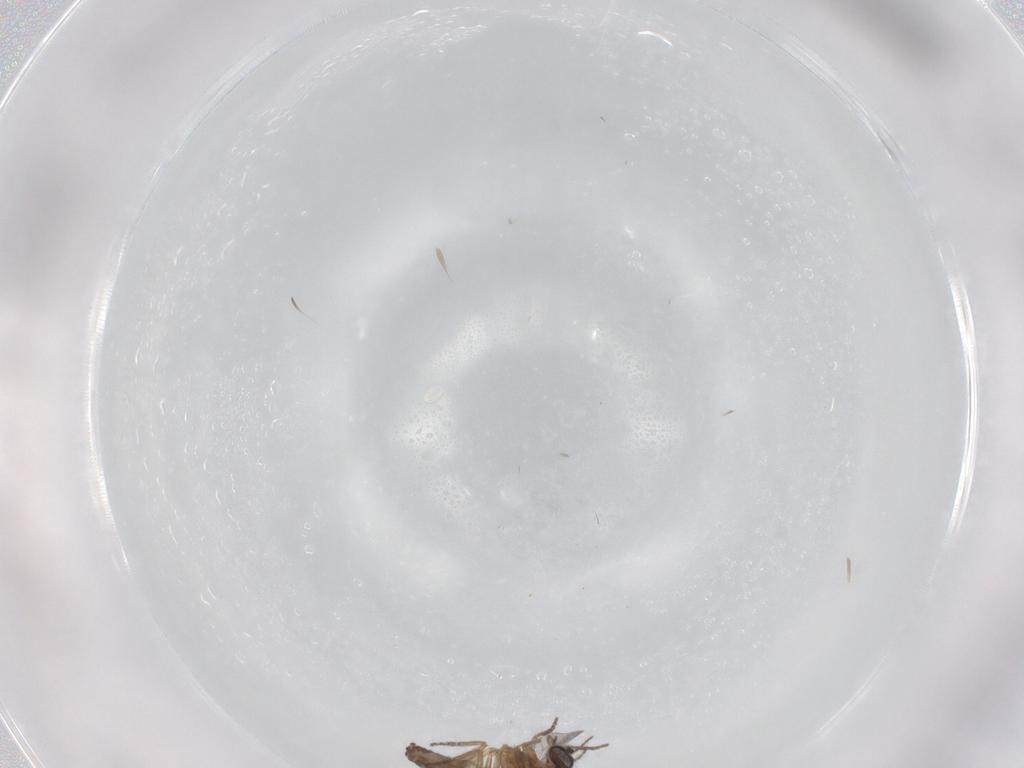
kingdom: Animalia
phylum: Arthropoda
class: Insecta
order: Diptera
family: Ceratopogonidae
